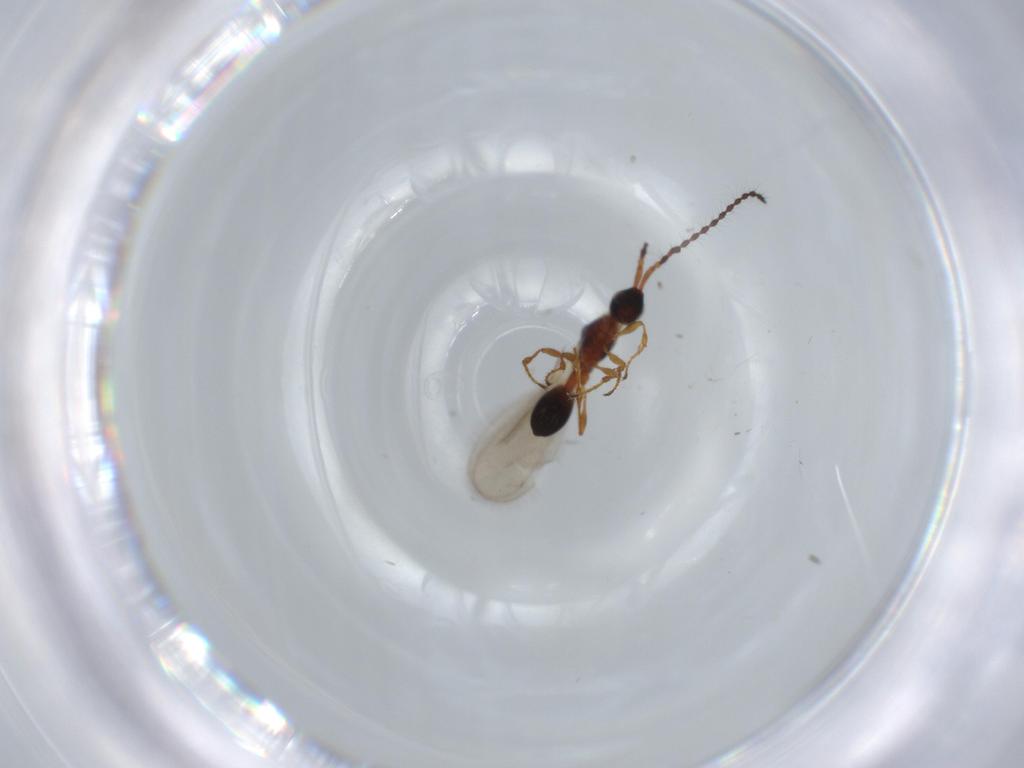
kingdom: Animalia
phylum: Arthropoda
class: Insecta
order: Hymenoptera
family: Diapriidae
